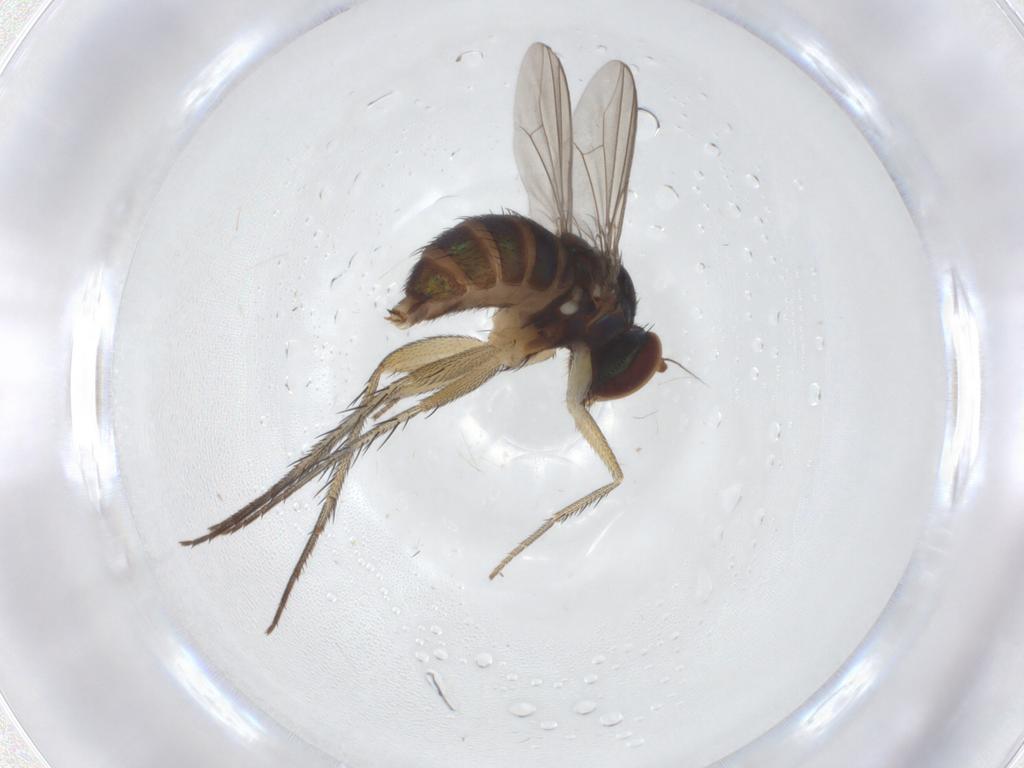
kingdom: Animalia
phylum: Arthropoda
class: Insecta
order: Diptera
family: Dolichopodidae
